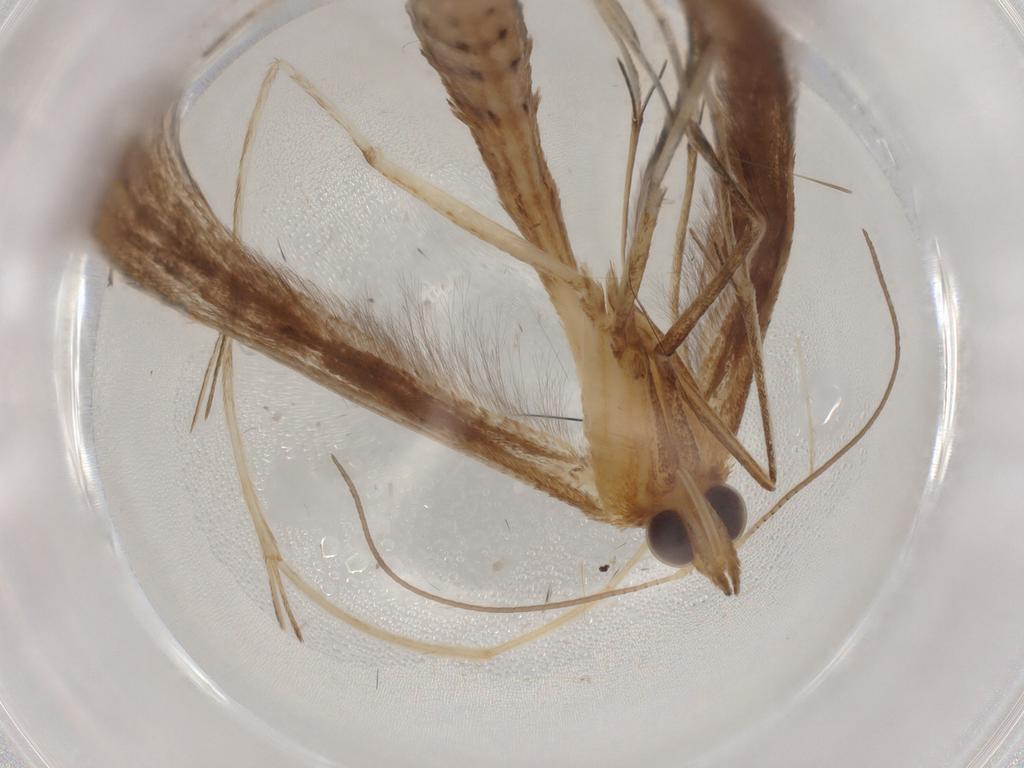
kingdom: Animalia
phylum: Arthropoda
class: Insecta
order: Lepidoptera
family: Pterophoridae
